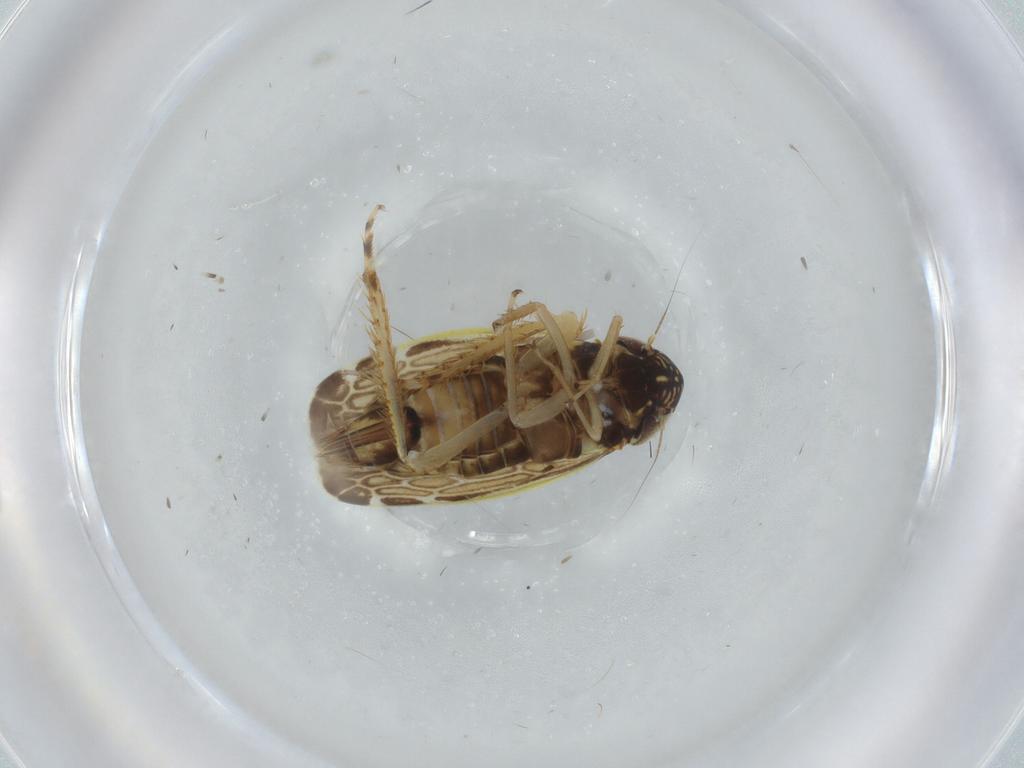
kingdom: Animalia
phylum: Arthropoda
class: Insecta
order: Hemiptera
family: Cicadellidae
